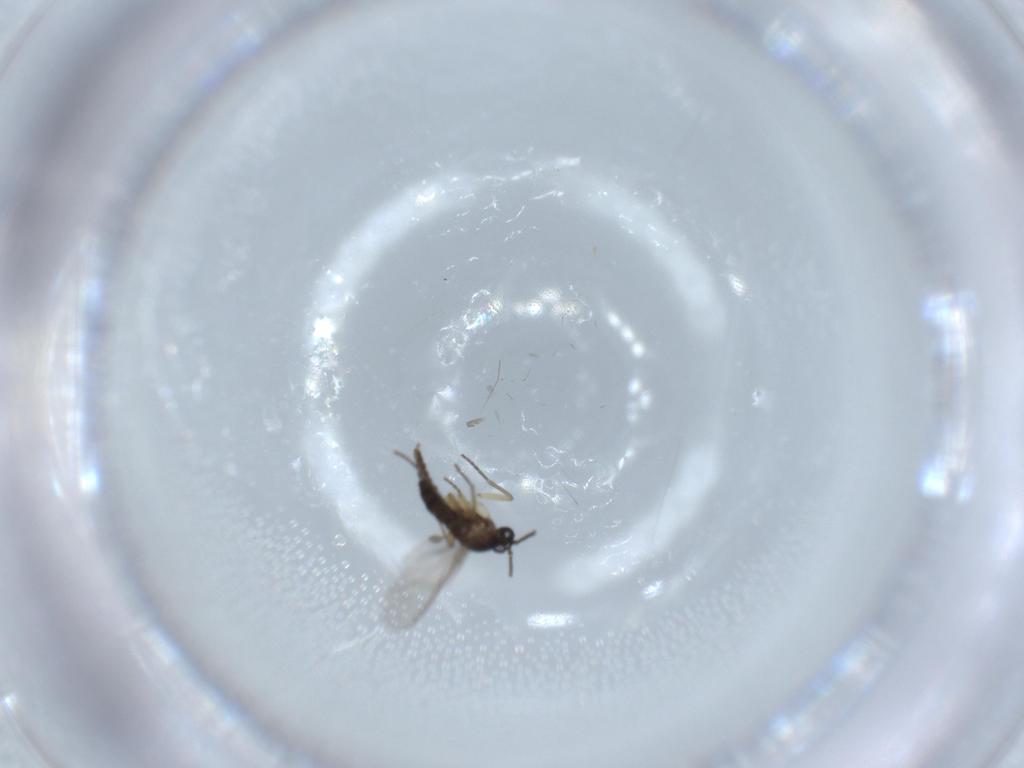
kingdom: Animalia
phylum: Arthropoda
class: Insecta
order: Diptera
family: Sciaridae
